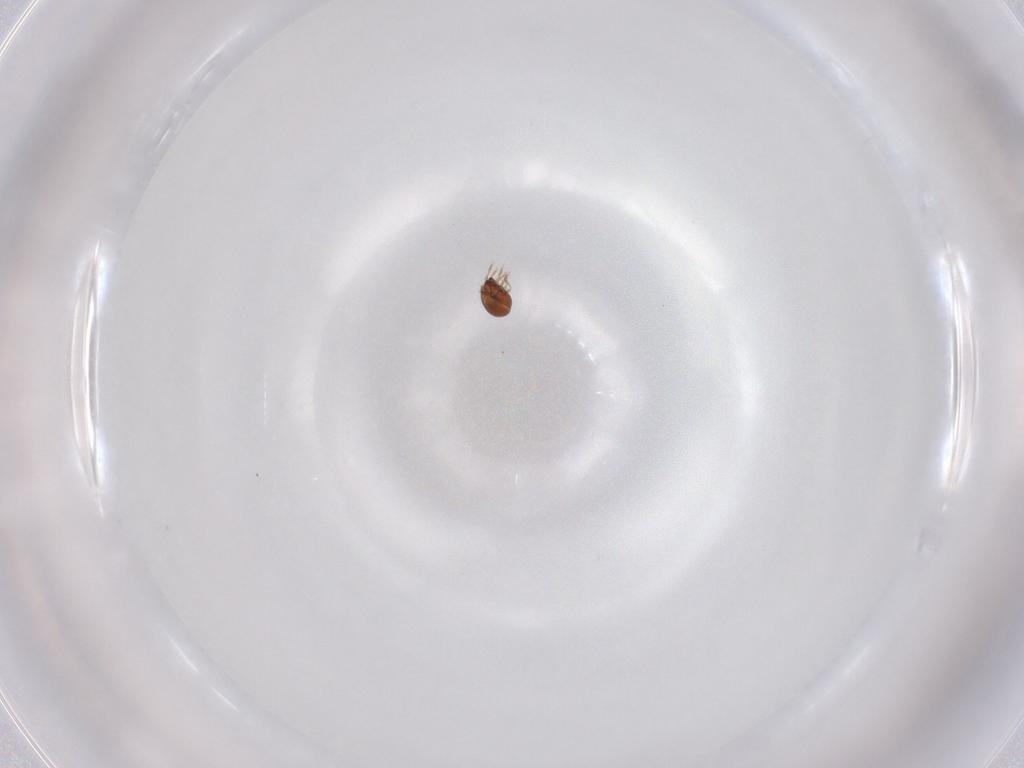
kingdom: Animalia
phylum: Arthropoda
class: Arachnida
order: Sarcoptiformes
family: Tegoribatidae
